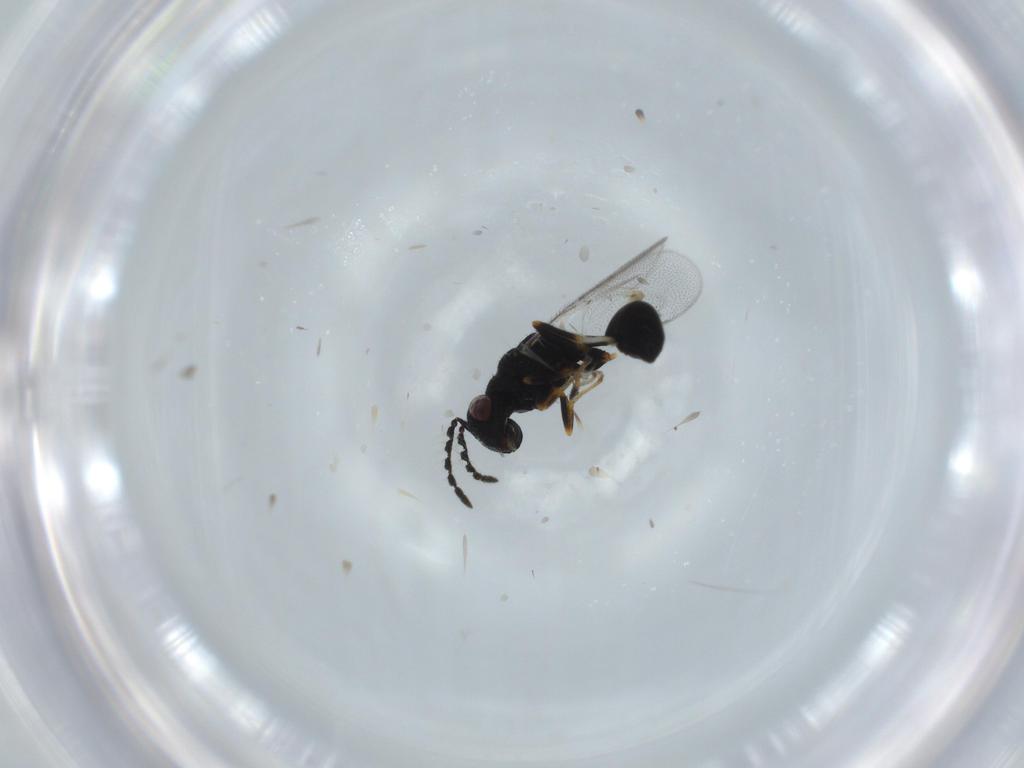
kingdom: Animalia
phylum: Arthropoda
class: Insecta
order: Hymenoptera
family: Eurytomidae
